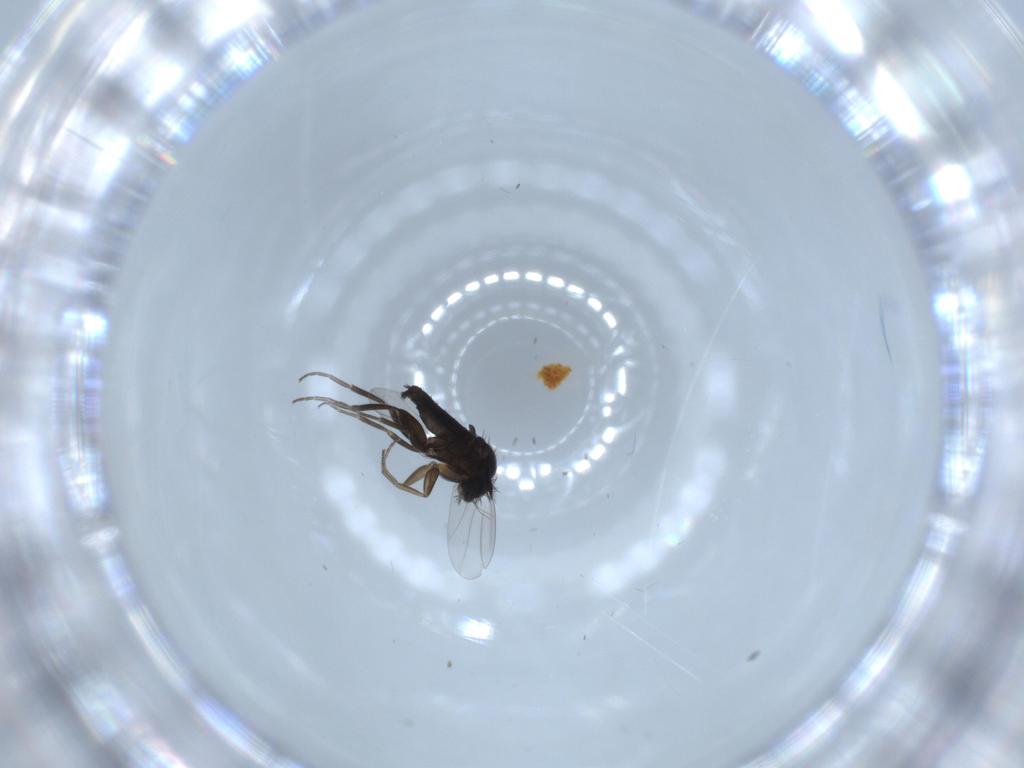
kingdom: Animalia
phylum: Arthropoda
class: Insecta
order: Diptera
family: Phoridae
